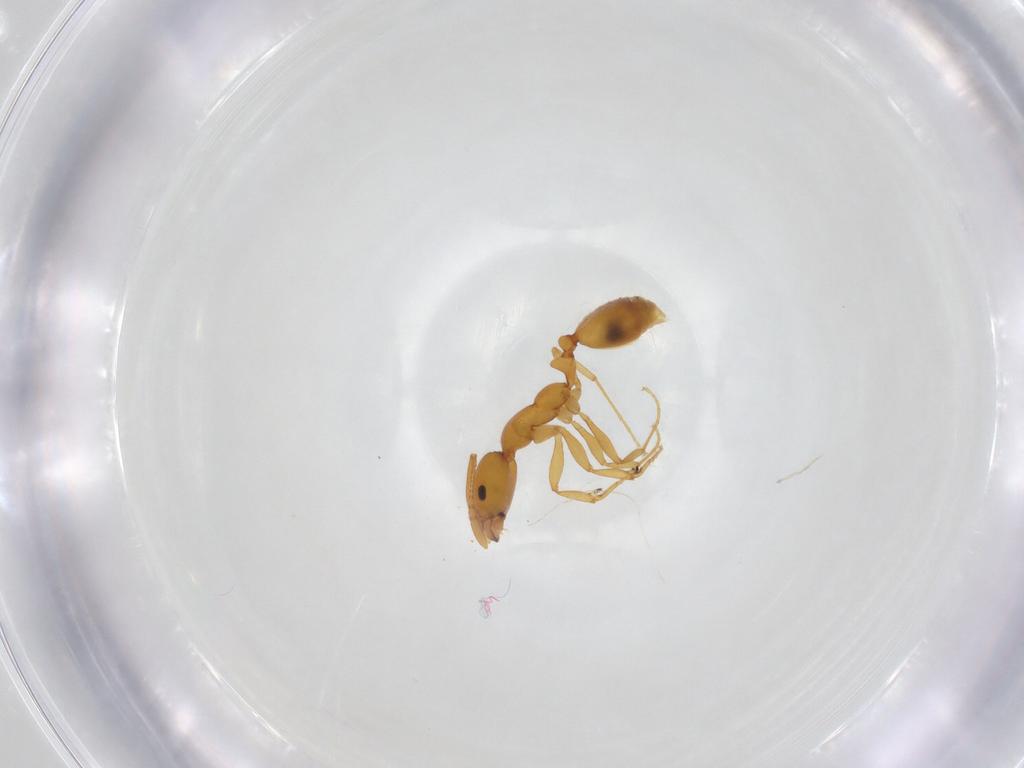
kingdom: Animalia
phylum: Arthropoda
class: Insecta
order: Hymenoptera
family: Formicidae
